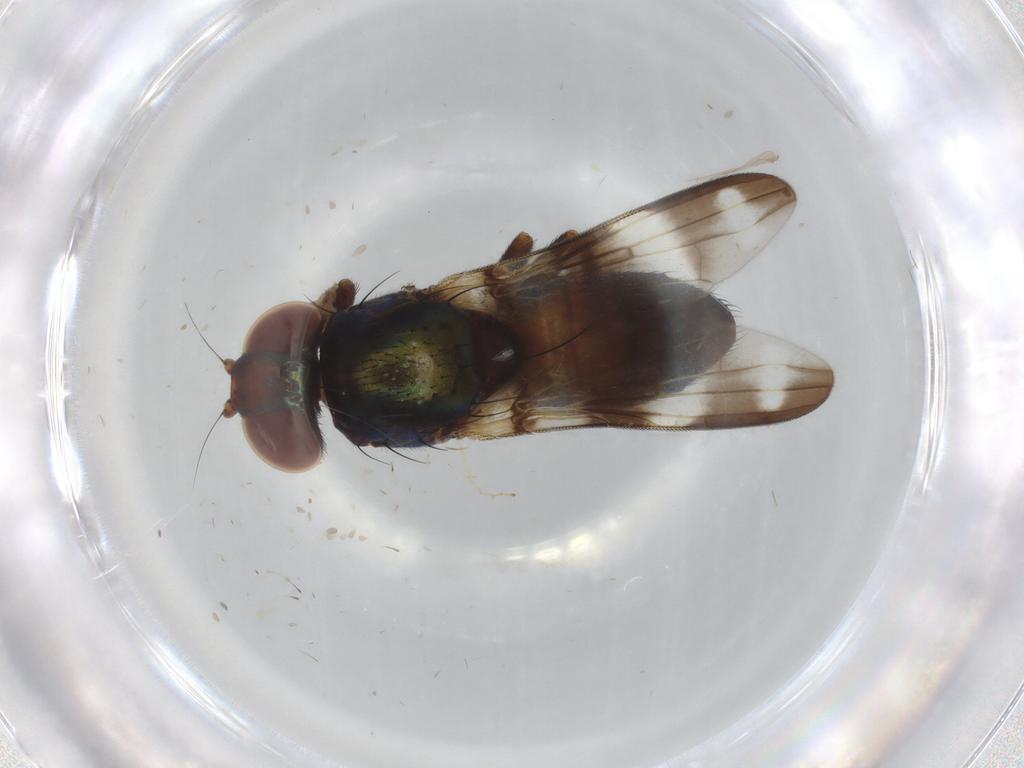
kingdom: Animalia
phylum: Arthropoda
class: Insecta
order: Diptera
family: Cecidomyiidae
